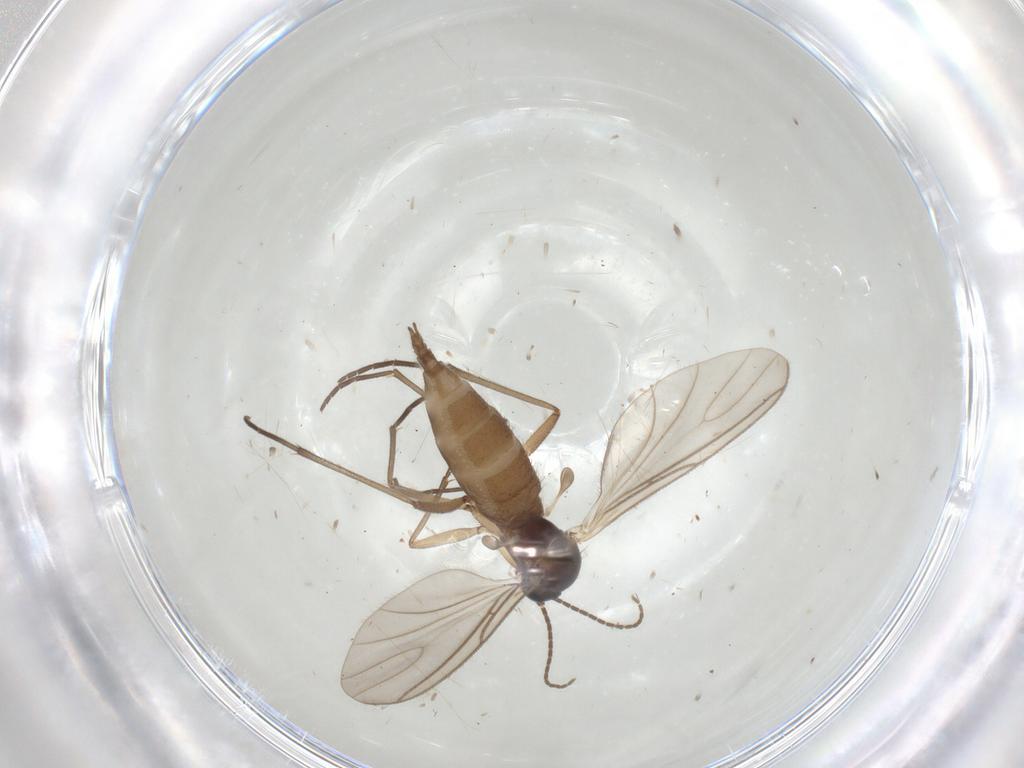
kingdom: Animalia
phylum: Arthropoda
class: Insecta
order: Diptera
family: Sciaridae
